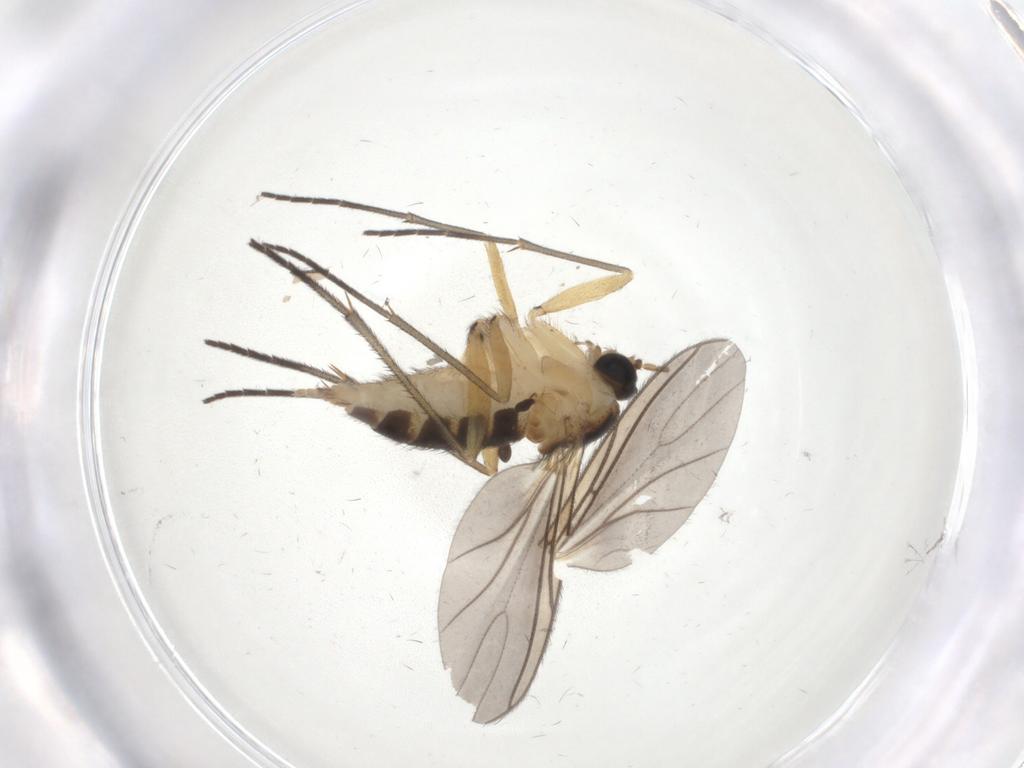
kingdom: Animalia
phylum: Arthropoda
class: Insecta
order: Diptera
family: Sciaridae
